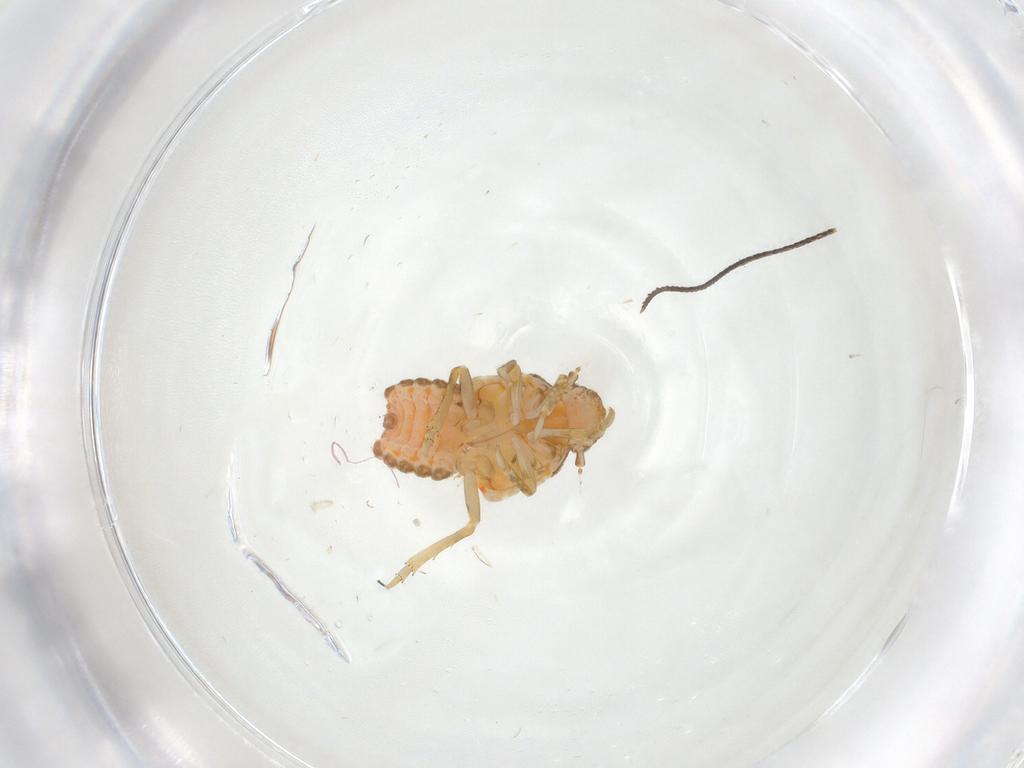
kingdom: Animalia
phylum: Arthropoda
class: Insecta
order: Hemiptera
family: Flatidae
